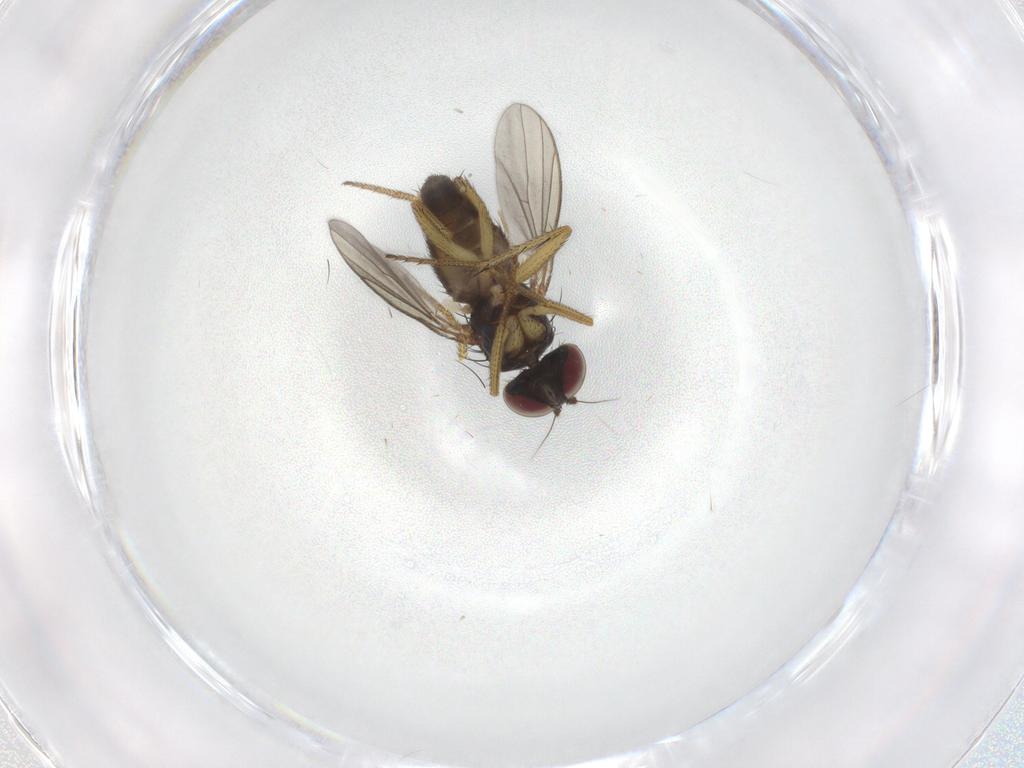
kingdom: Animalia
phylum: Arthropoda
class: Insecta
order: Diptera
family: Chironomidae
